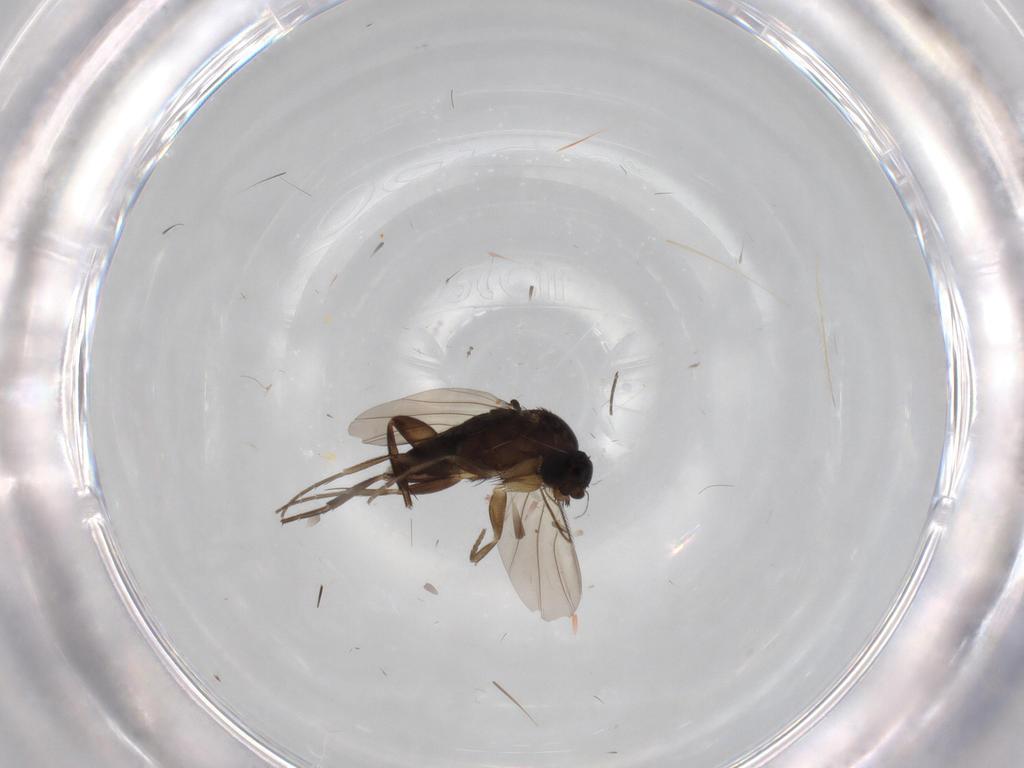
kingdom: Animalia
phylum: Arthropoda
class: Insecta
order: Diptera
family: Phoridae
